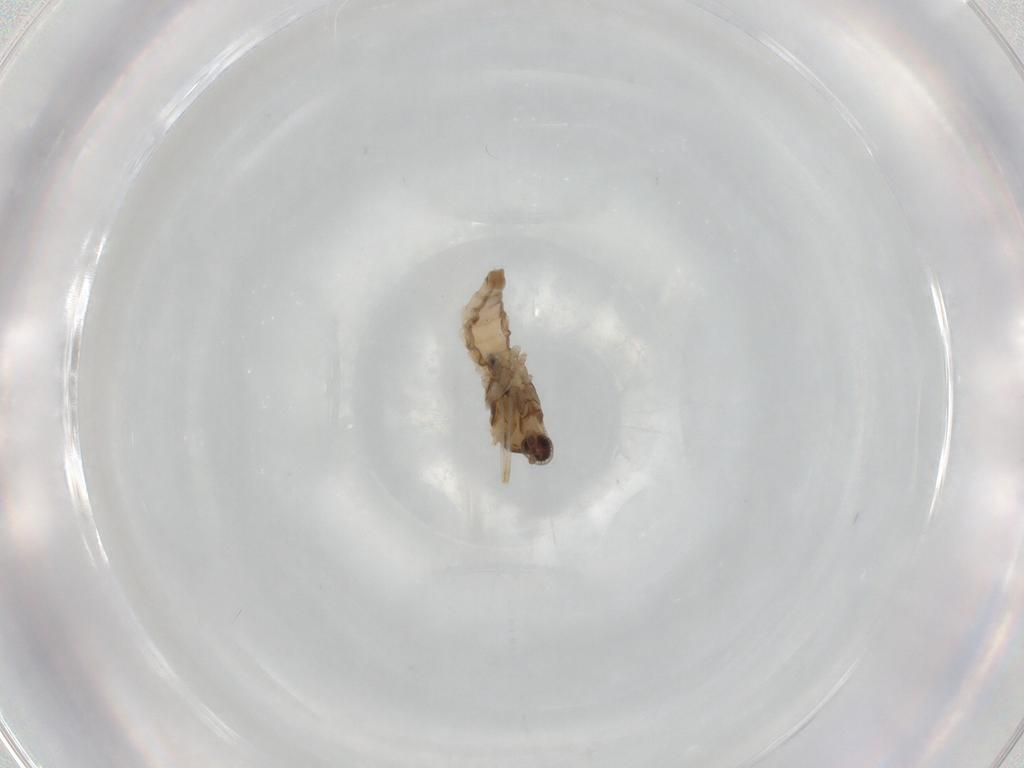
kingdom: Animalia
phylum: Arthropoda
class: Insecta
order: Diptera
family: Cecidomyiidae
